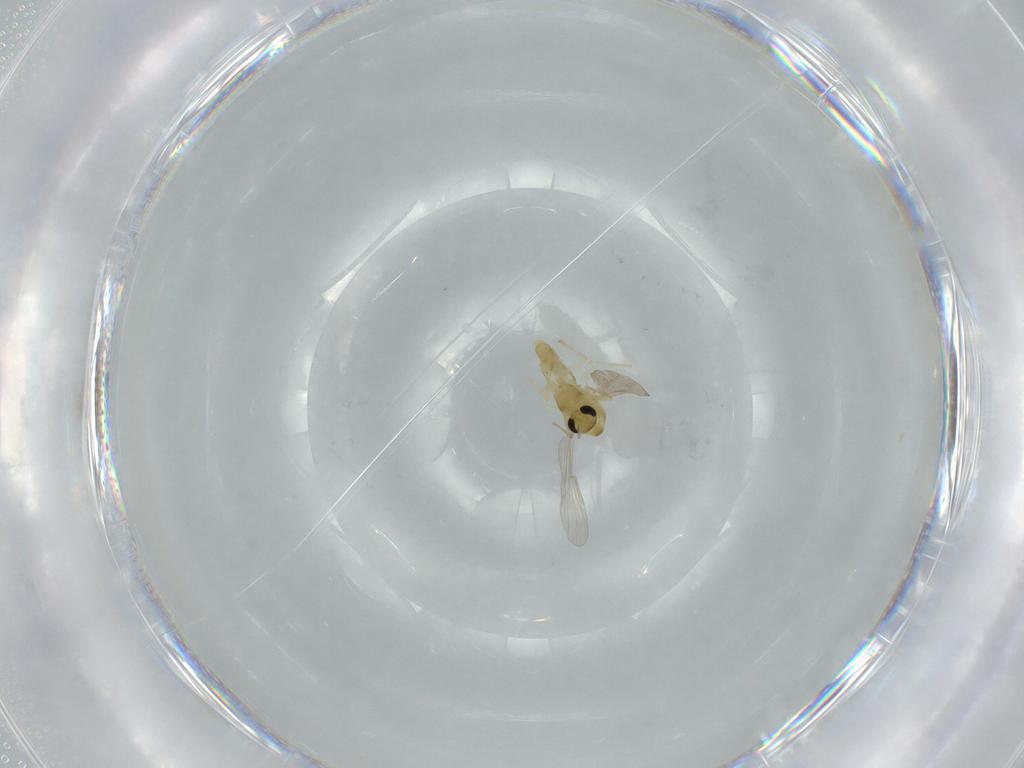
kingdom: Animalia
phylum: Arthropoda
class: Insecta
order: Diptera
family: Chironomidae
